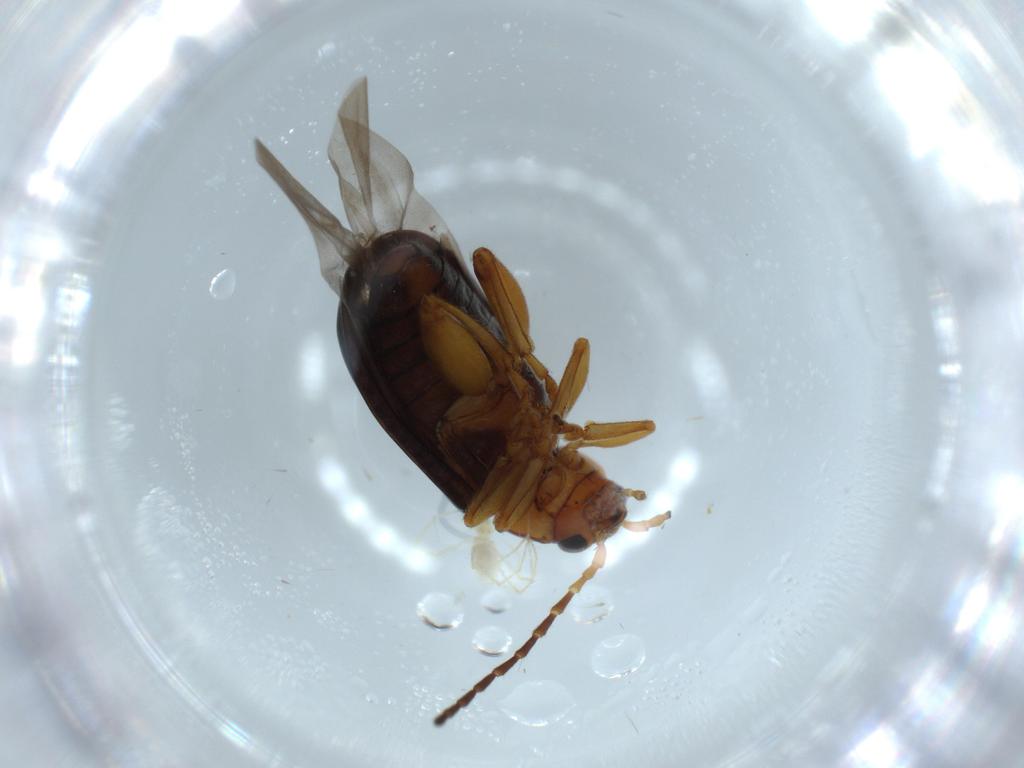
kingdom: Animalia
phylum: Arthropoda
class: Insecta
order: Coleoptera
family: Chrysomelidae
